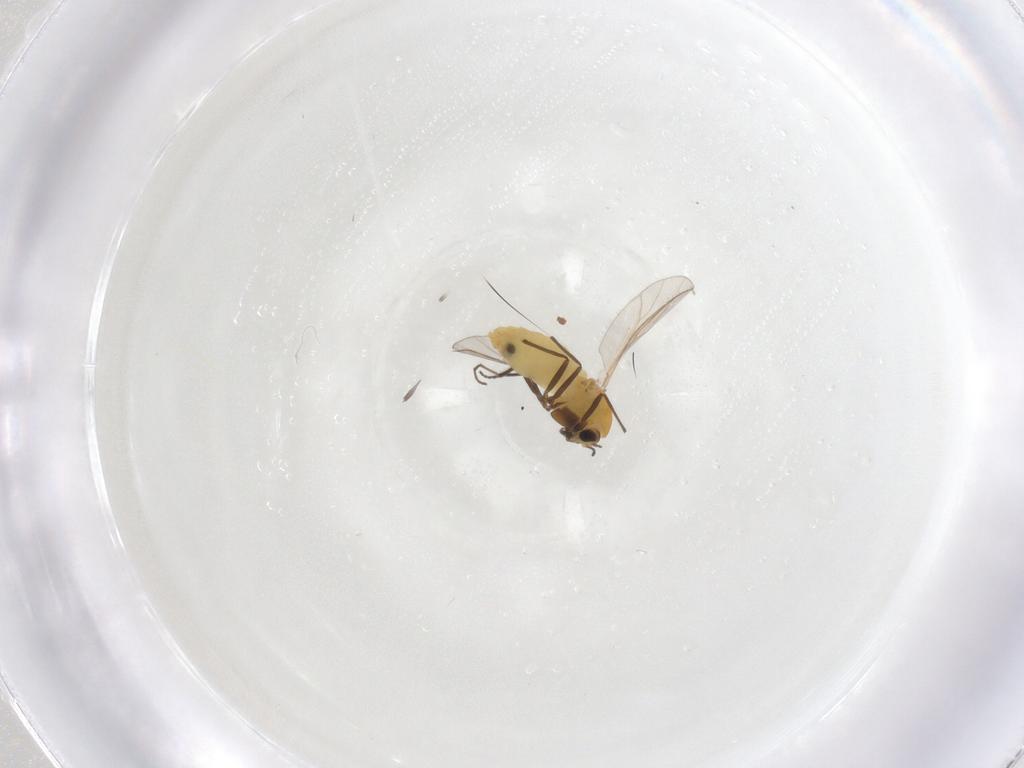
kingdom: Animalia
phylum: Arthropoda
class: Insecta
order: Diptera
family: Chironomidae
